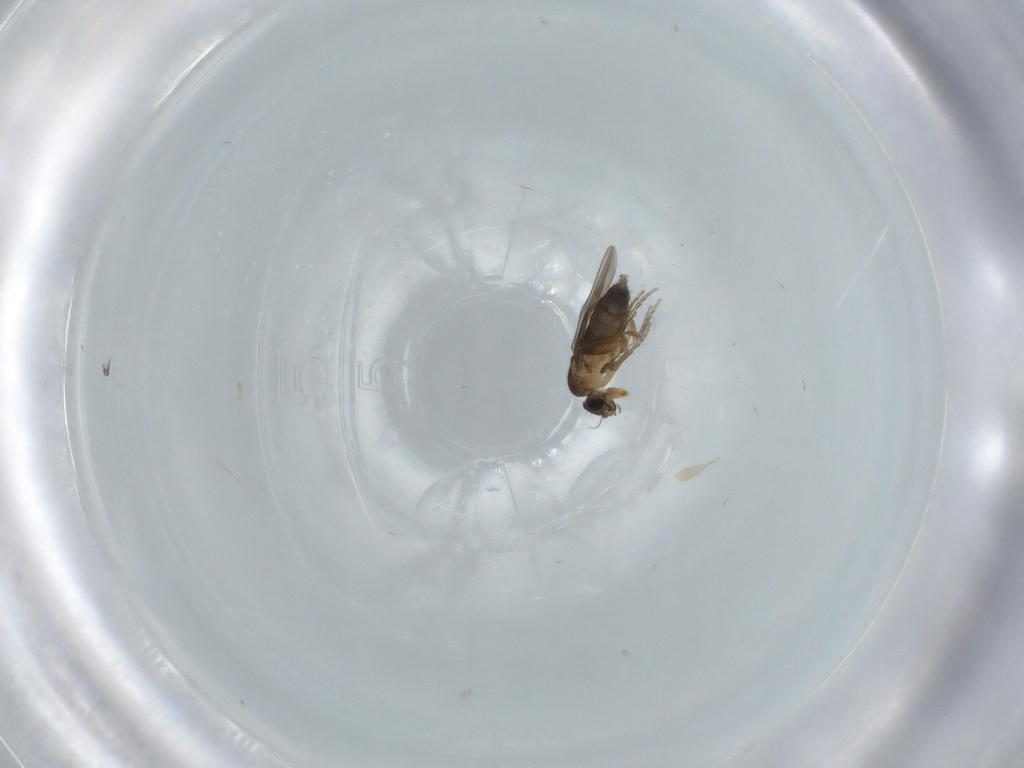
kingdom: Animalia
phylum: Arthropoda
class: Insecta
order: Diptera
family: Phoridae
